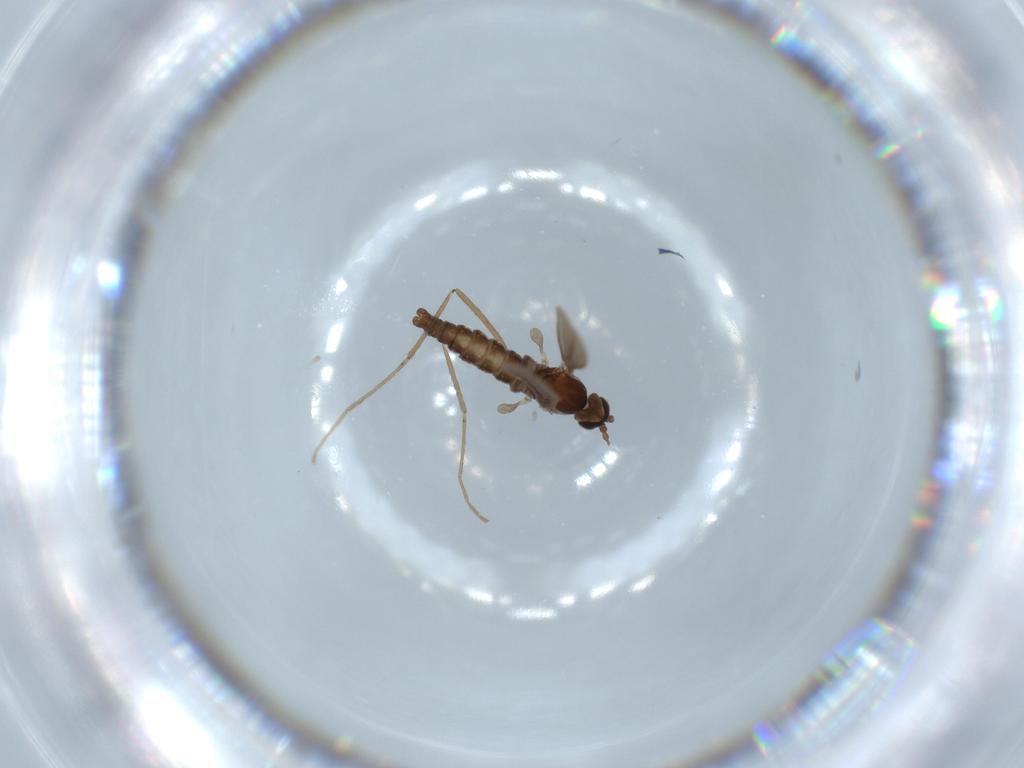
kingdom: Animalia
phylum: Arthropoda
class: Insecta
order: Diptera
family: Cecidomyiidae
